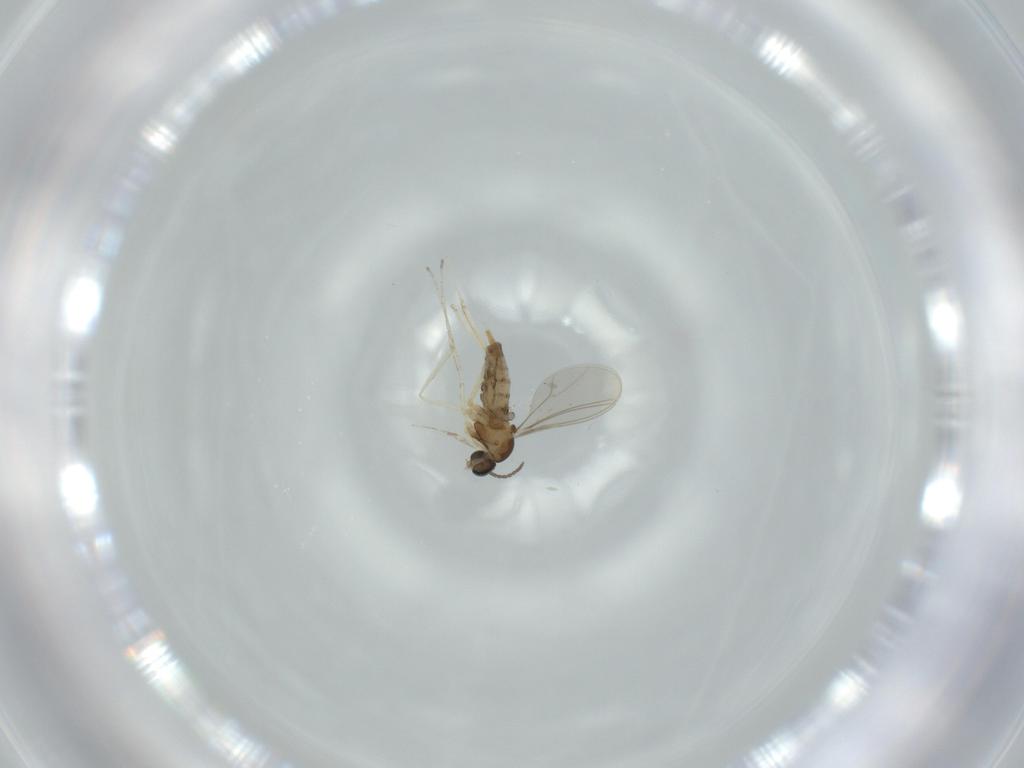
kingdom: Animalia
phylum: Arthropoda
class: Insecta
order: Diptera
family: Cecidomyiidae
